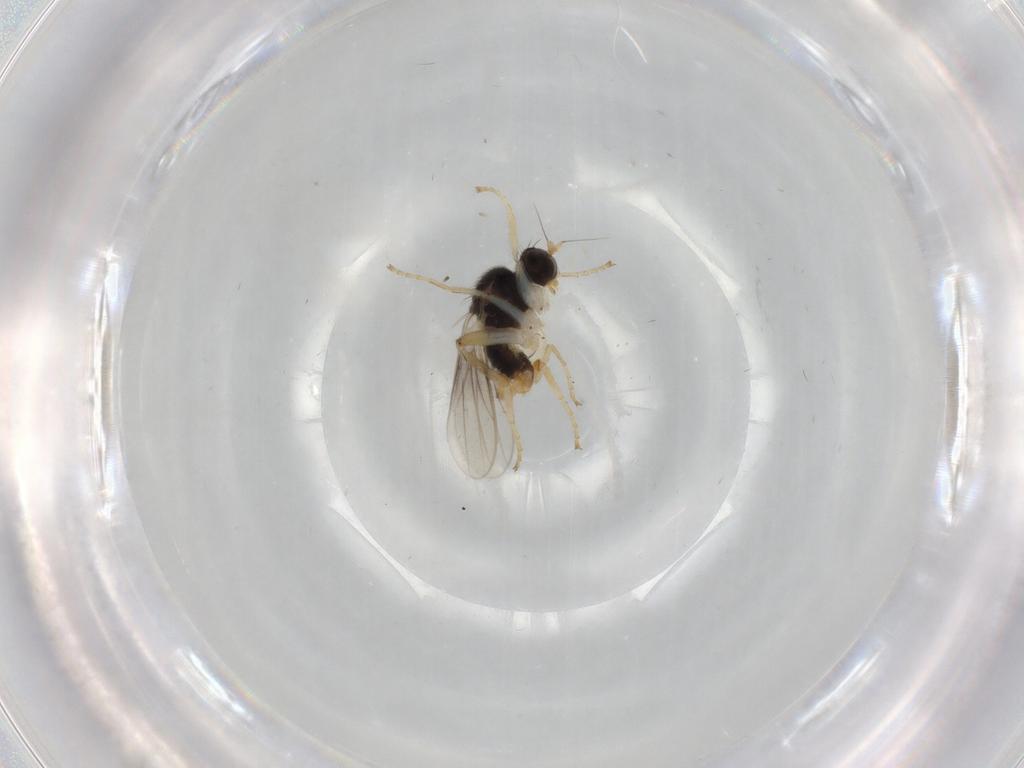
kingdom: Animalia
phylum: Arthropoda
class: Insecta
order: Diptera
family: Hybotidae
